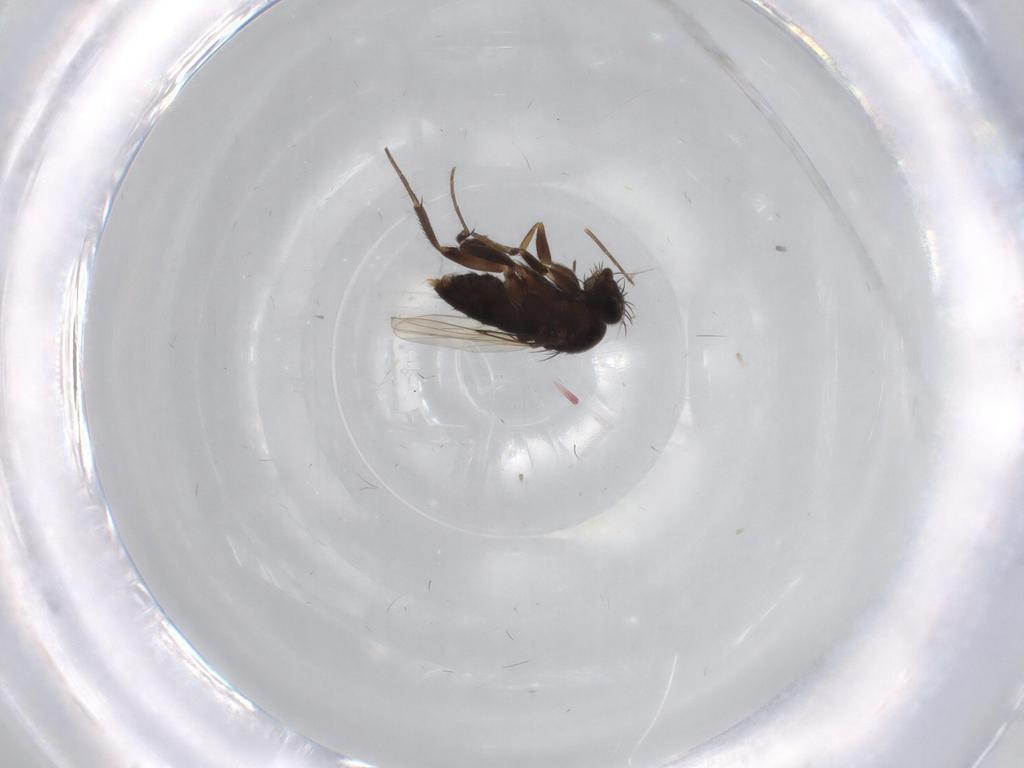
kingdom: Animalia
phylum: Arthropoda
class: Insecta
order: Diptera
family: Phoridae
